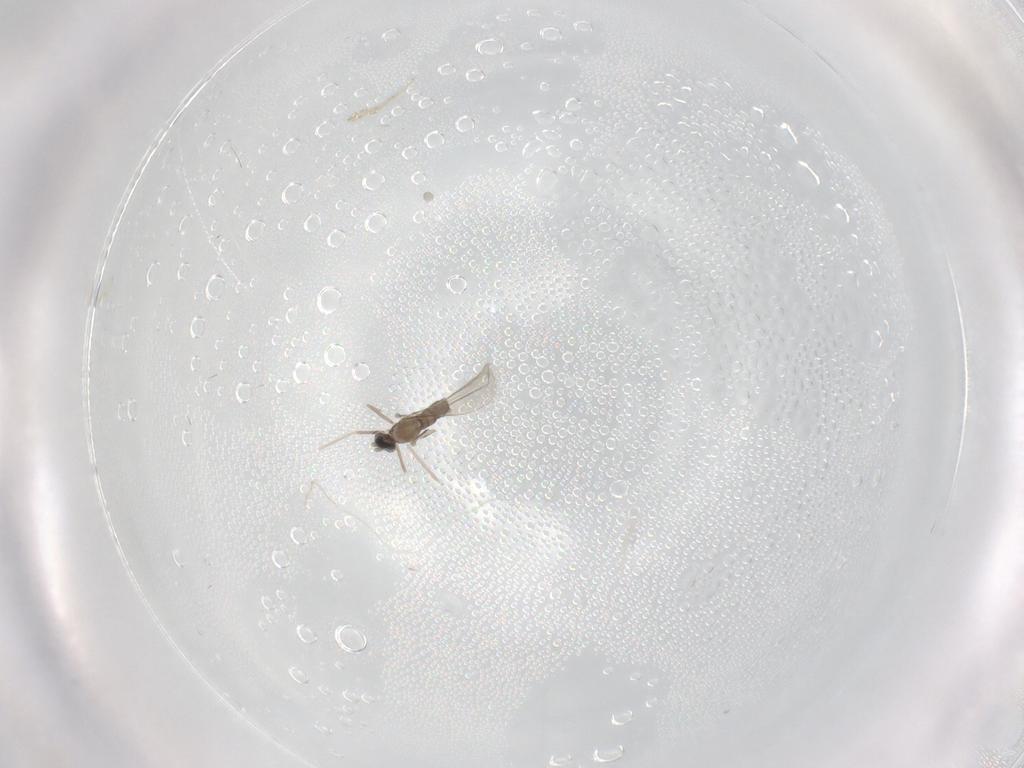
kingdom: Animalia
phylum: Arthropoda
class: Insecta
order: Diptera
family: Cecidomyiidae
